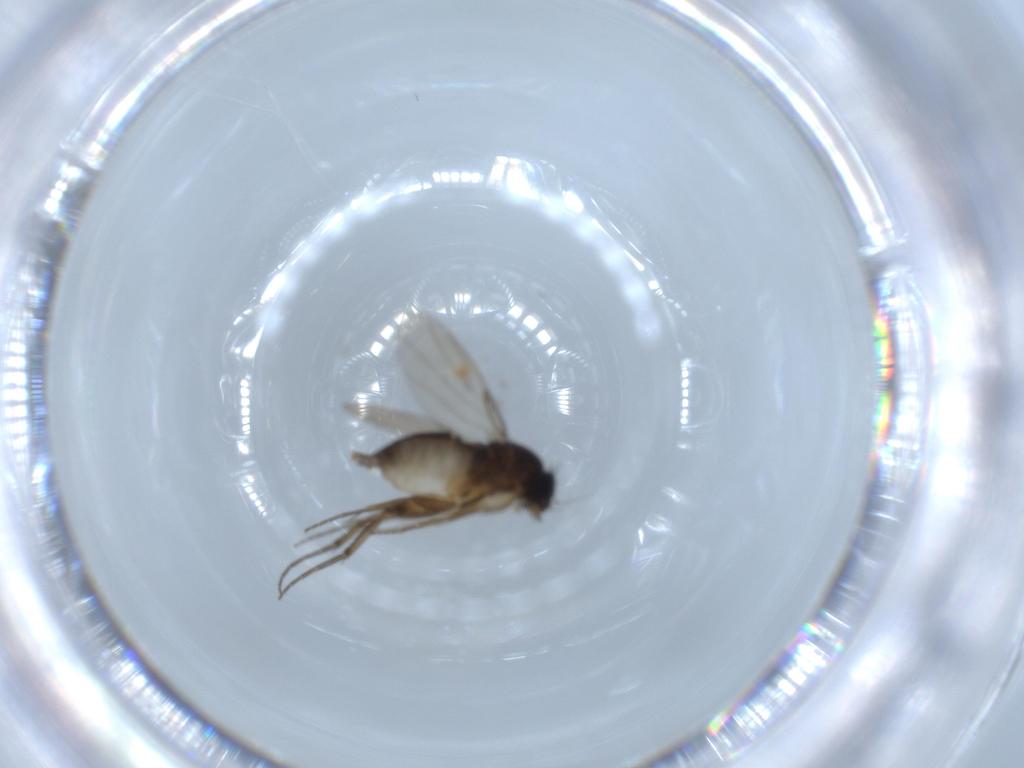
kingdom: Animalia
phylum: Arthropoda
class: Insecta
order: Diptera
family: Phoridae
